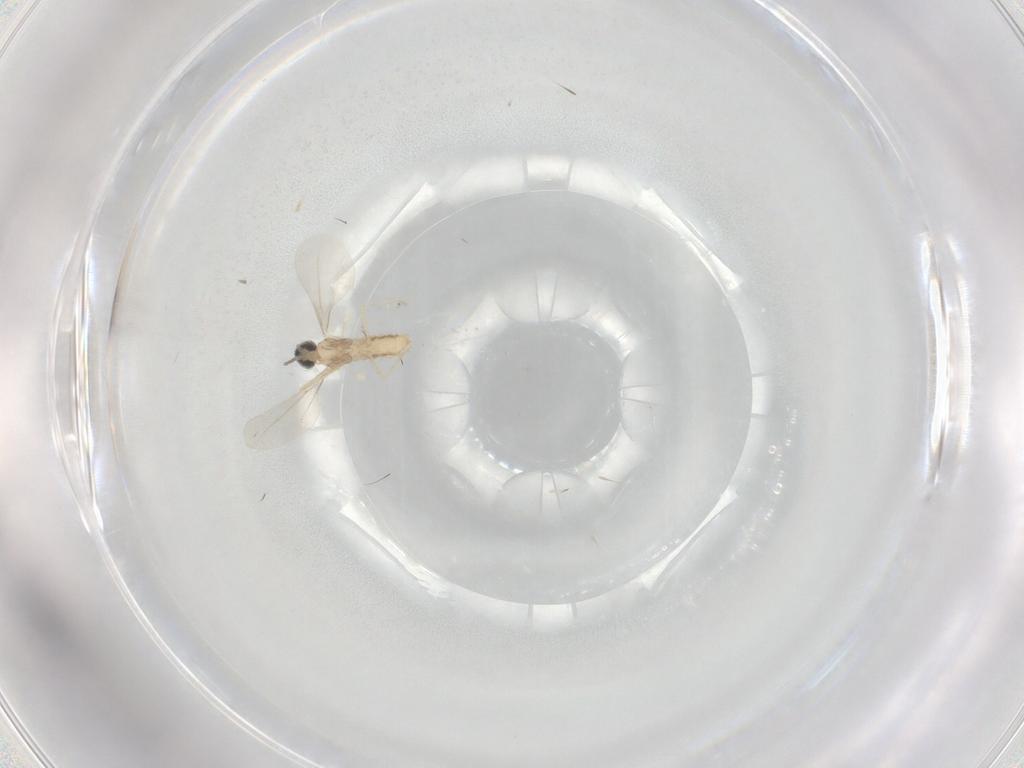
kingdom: Animalia
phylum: Arthropoda
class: Insecta
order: Diptera
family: Cecidomyiidae
